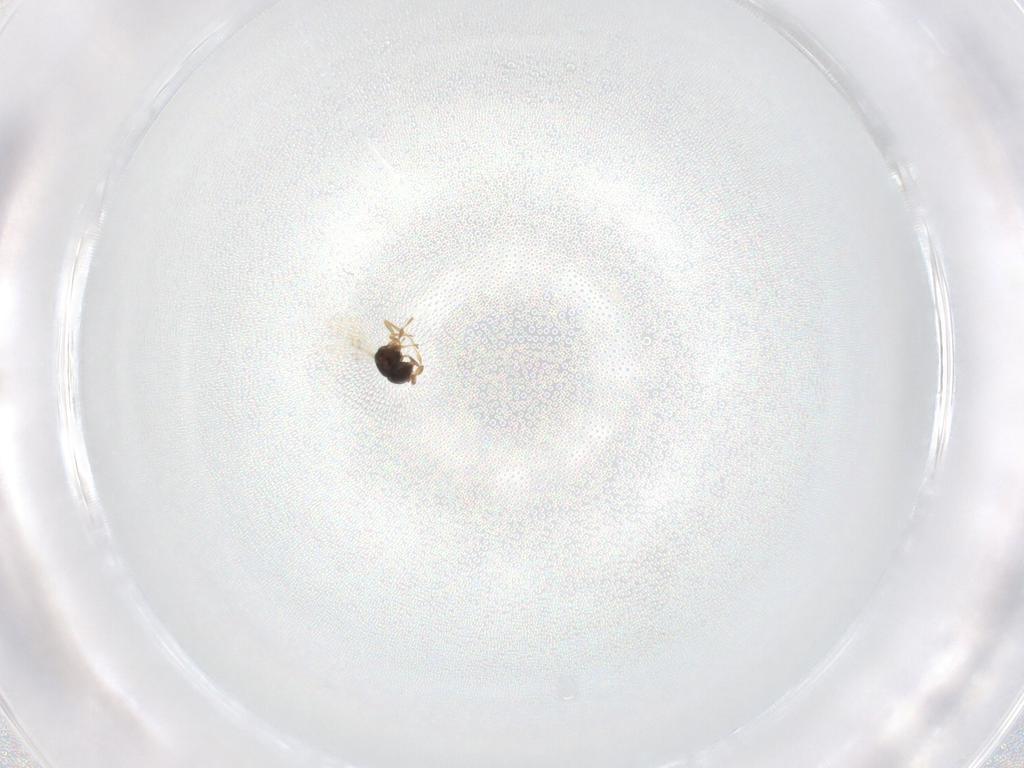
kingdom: Animalia
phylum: Arthropoda
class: Insecta
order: Hymenoptera
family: Scelionidae
